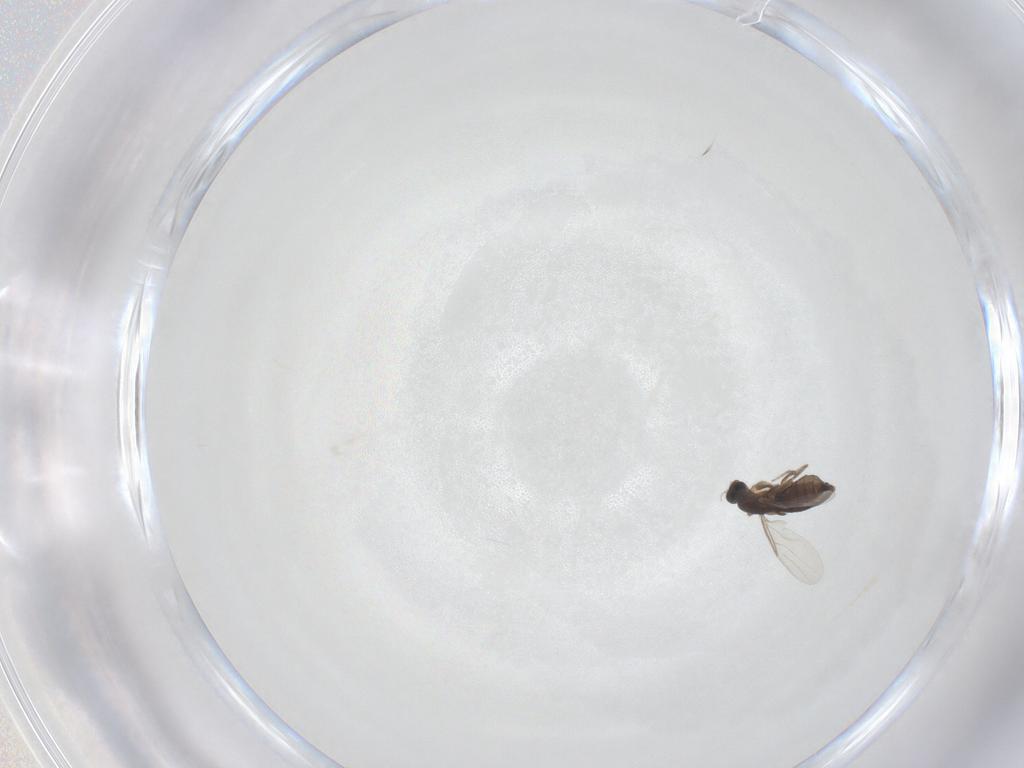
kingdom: Animalia
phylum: Arthropoda
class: Insecta
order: Diptera
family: Phoridae
